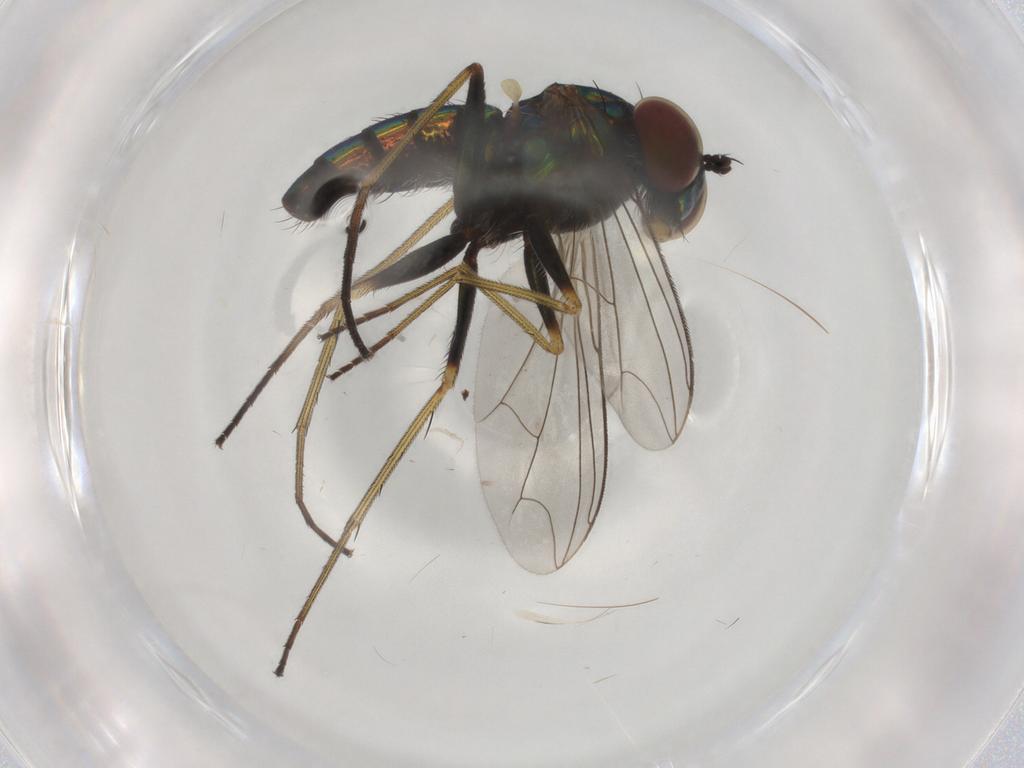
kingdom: Animalia
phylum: Arthropoda
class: Insecta
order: Diptera
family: Dolichopodidae
